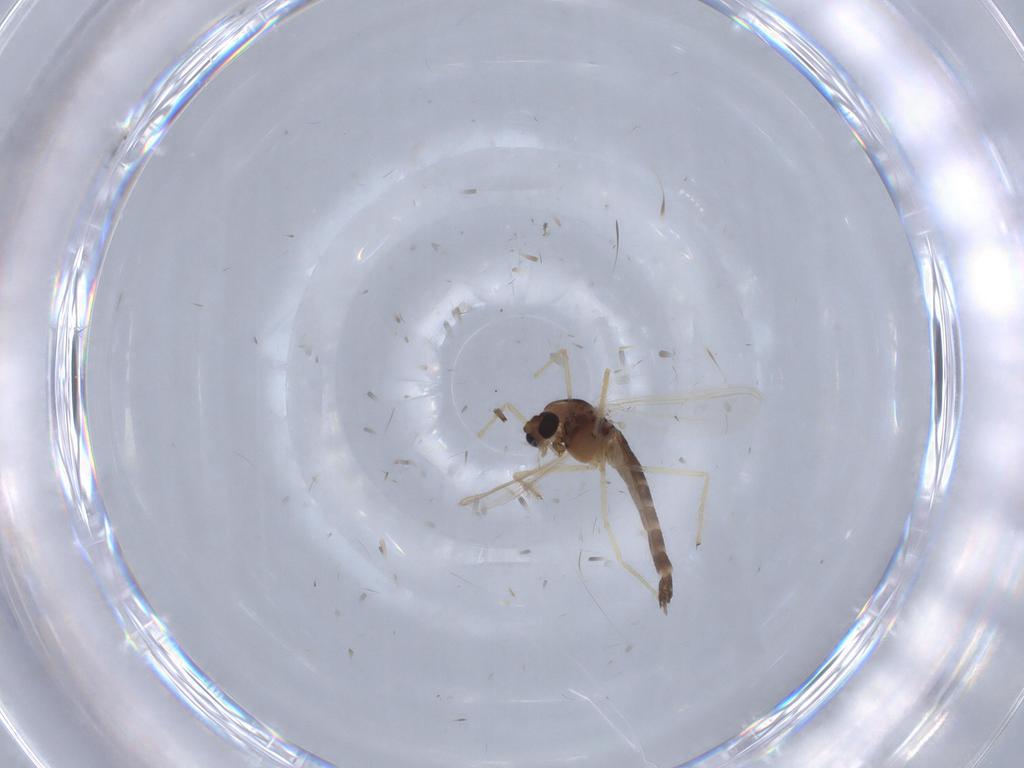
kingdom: Animalia
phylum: Arthropoda
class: Insecta
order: Diptera
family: Chironomidae
